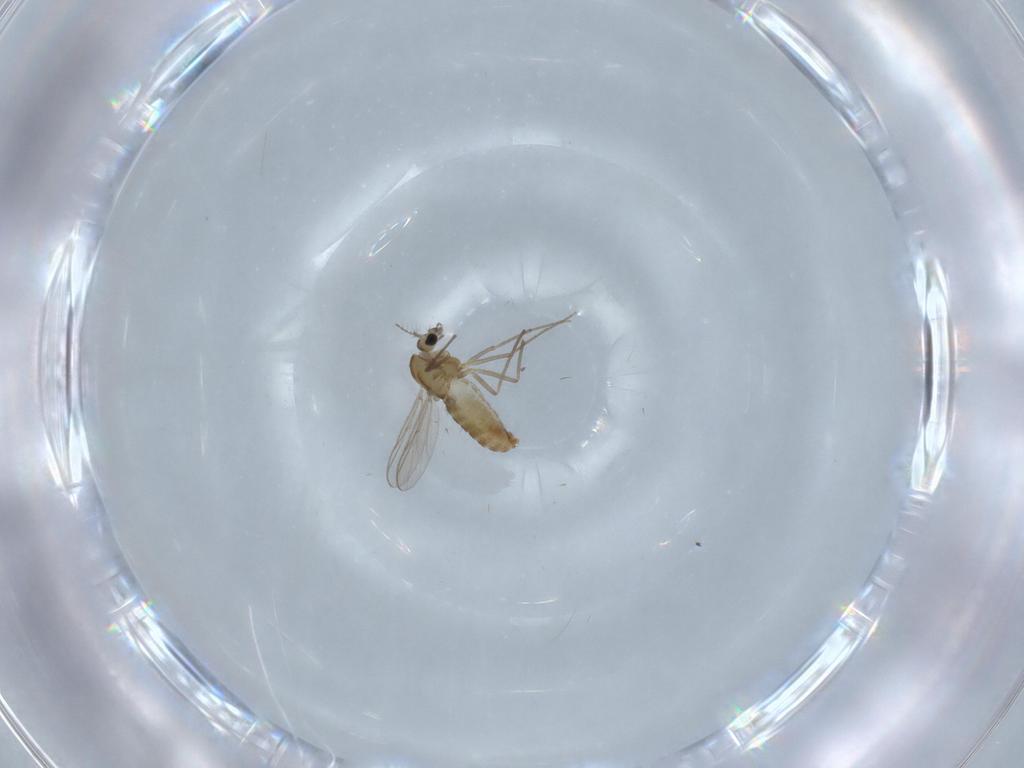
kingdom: Animalia
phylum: Arthropoda
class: Insecta
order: Diptera
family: Chironomidae
